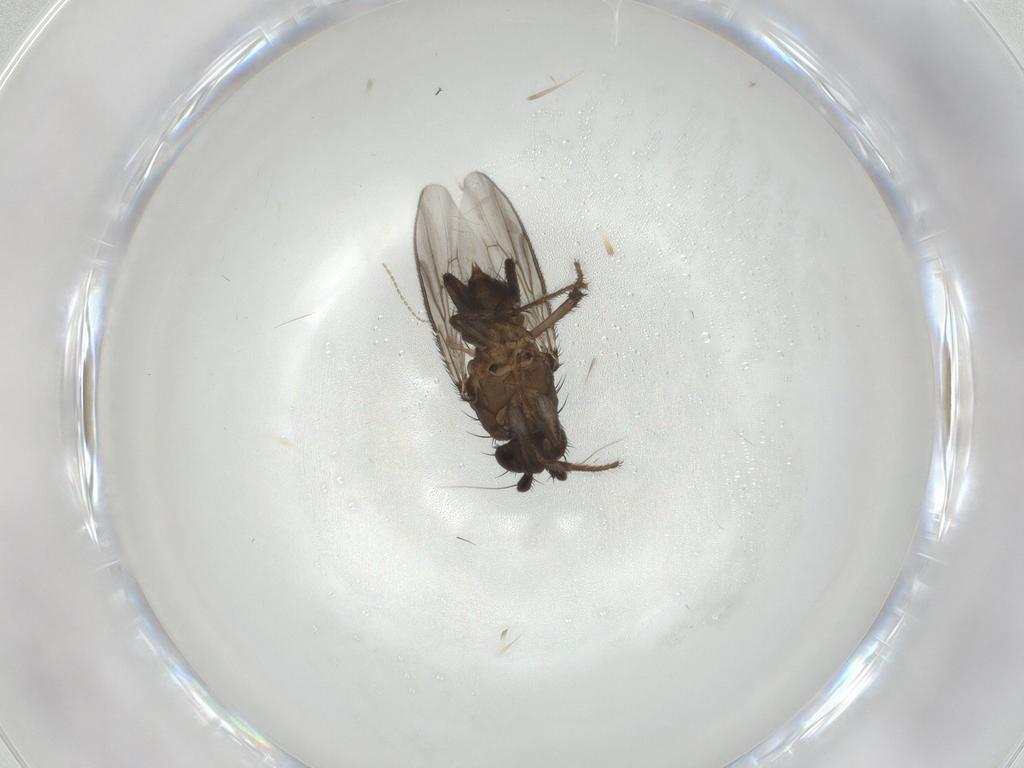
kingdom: Animalia
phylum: Arthropoda
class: Insecta
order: Diptera
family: Sphaeroceridae
